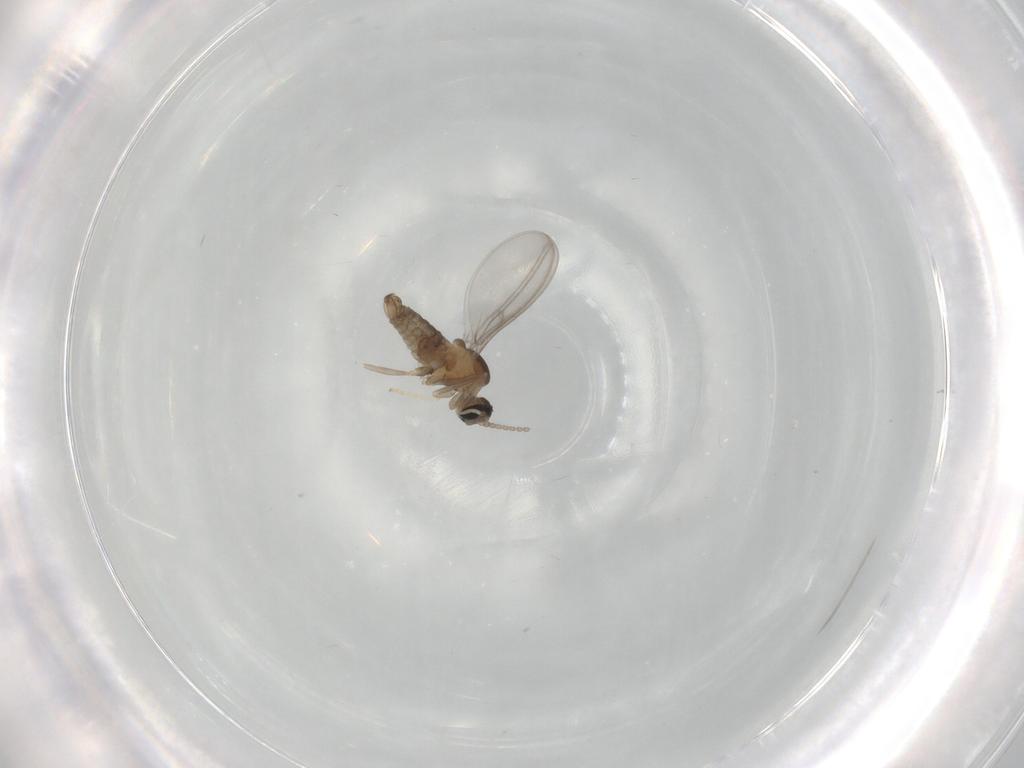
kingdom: Animalia
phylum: Arthropoda
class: Insecta
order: Diptera
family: Cecidomyiidae
